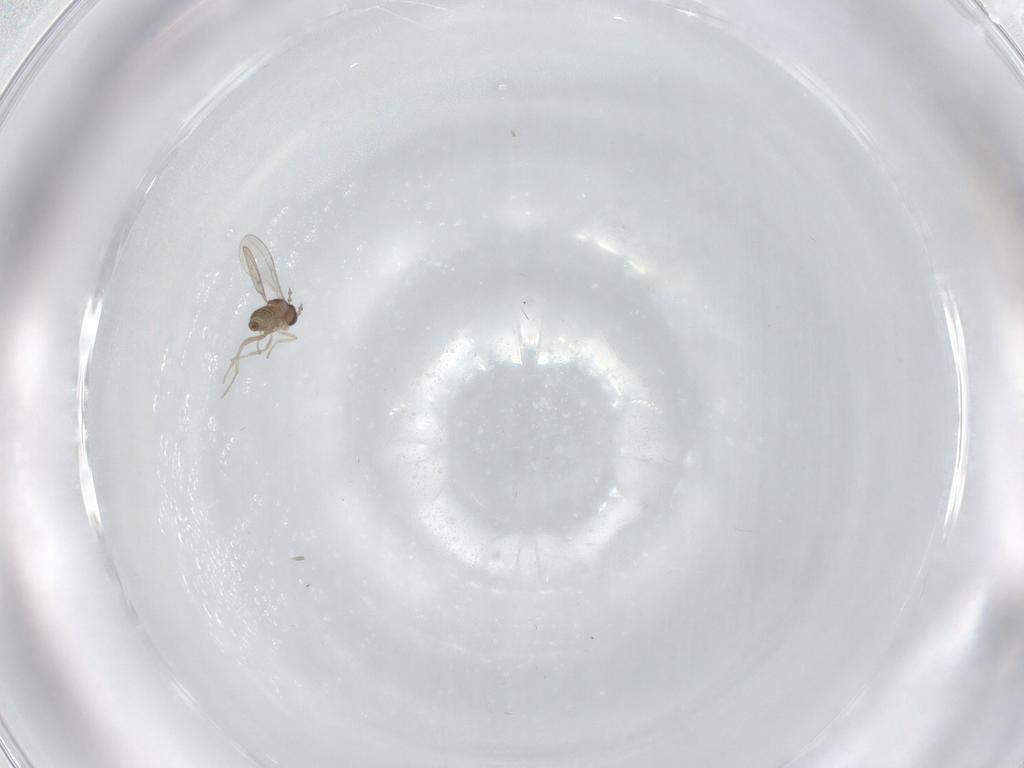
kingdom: Animalia
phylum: Arthropoda
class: Insecta
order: Diptera
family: Cecidomyiidae
